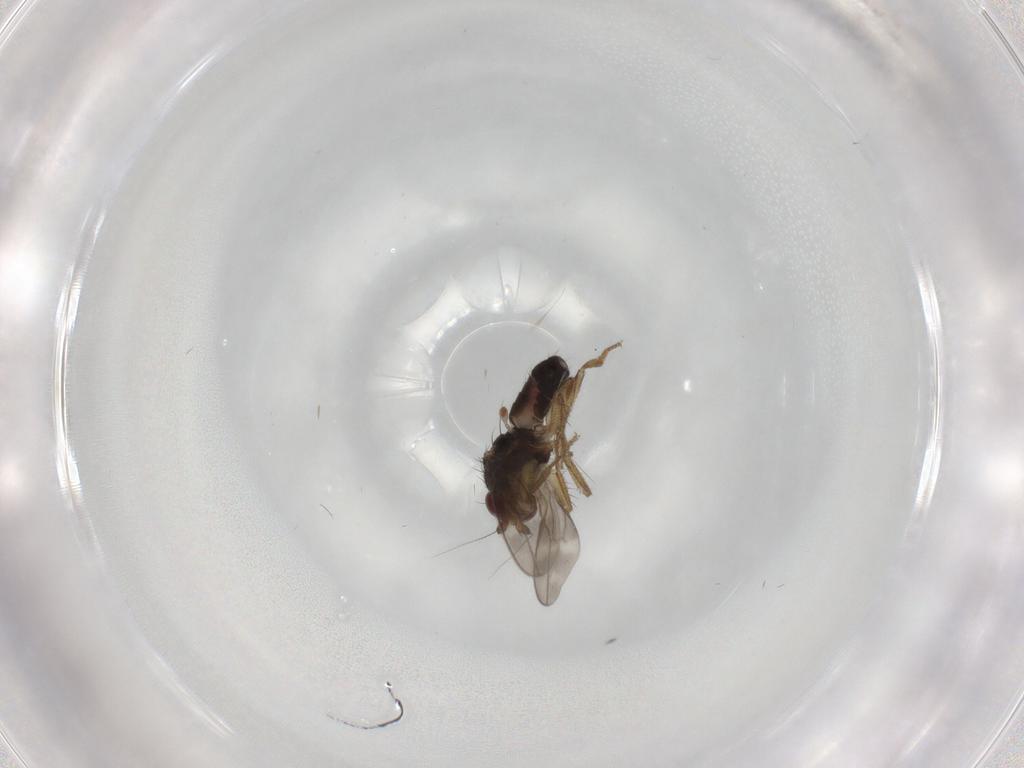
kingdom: Animalia
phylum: Arthropoda
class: Insecta
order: Diptera
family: Sphaeroceridae
